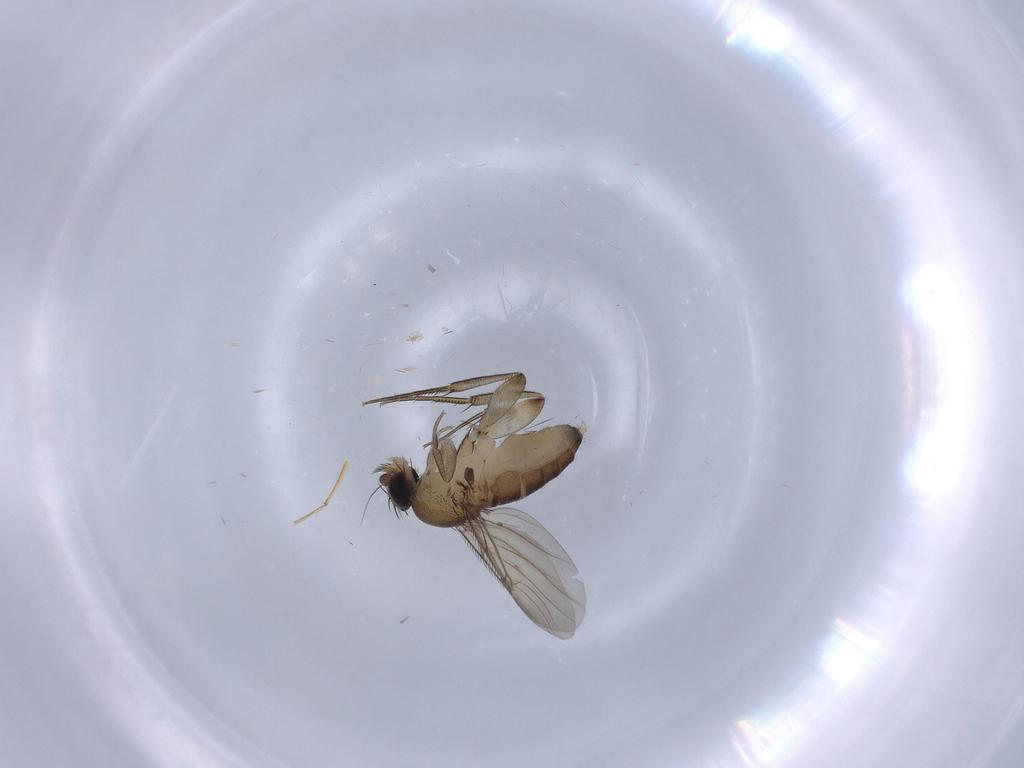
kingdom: Animalia
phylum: Arthropoda
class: Insecta
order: Diptera
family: Phoridae
